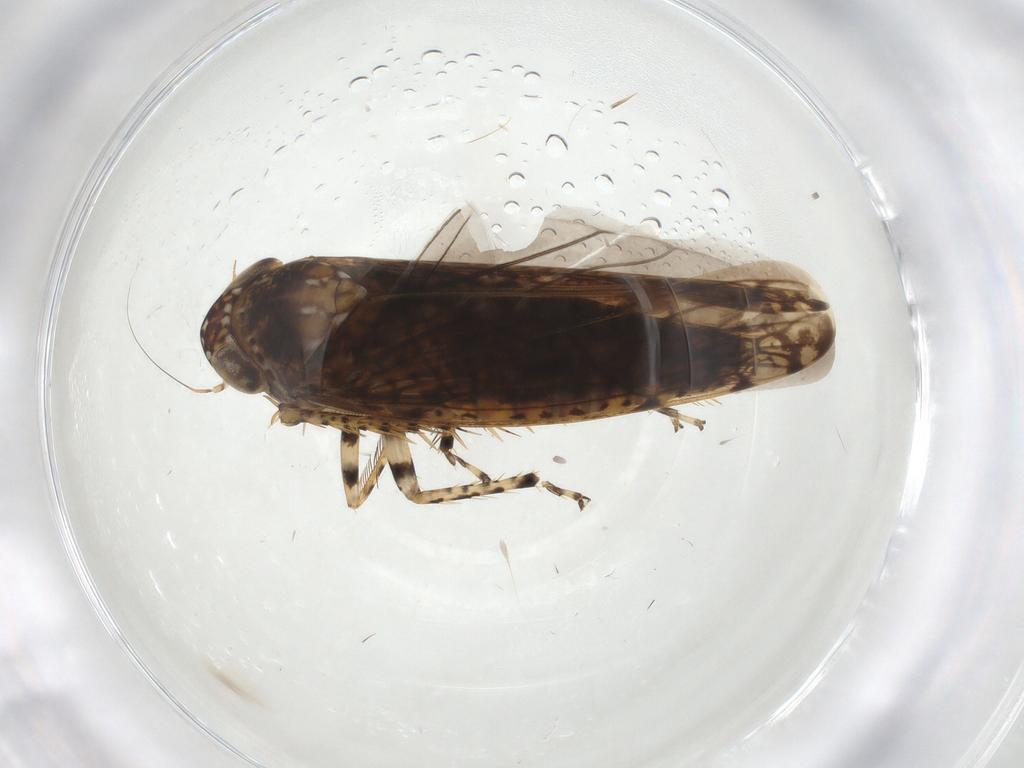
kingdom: Animalia
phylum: Arthropoda
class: Insecta
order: Hemiptera
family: Cicadellidae
